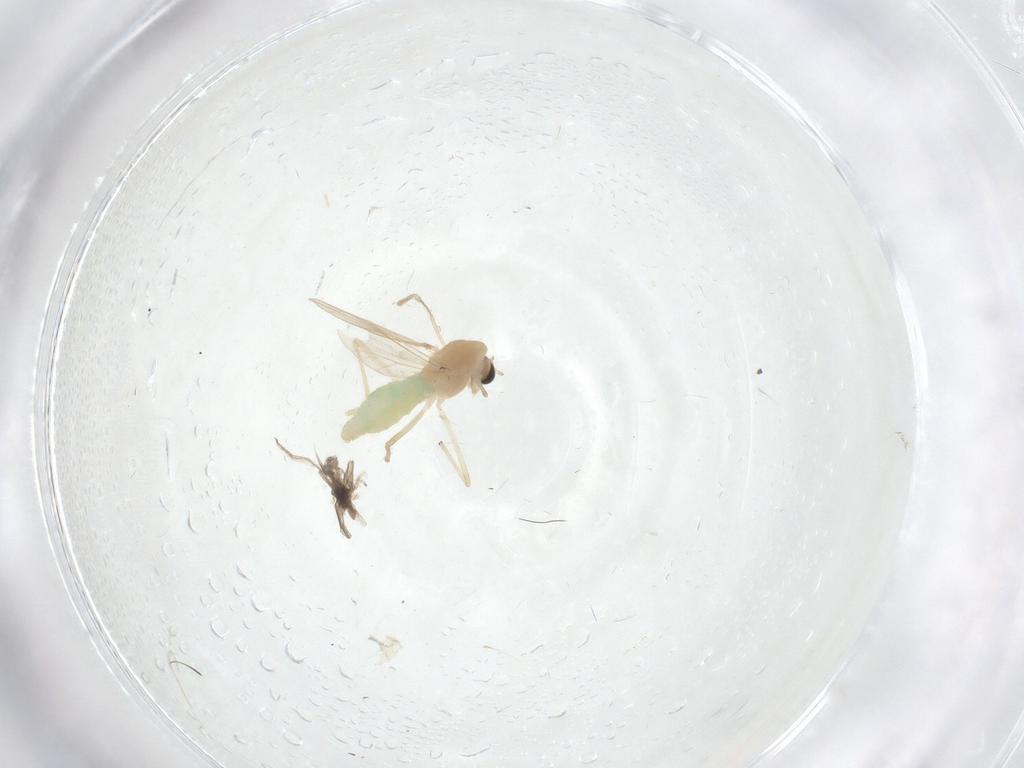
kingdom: Animalia
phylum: Arthropoda
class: Insecta
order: Diptera
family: Chironomidae
